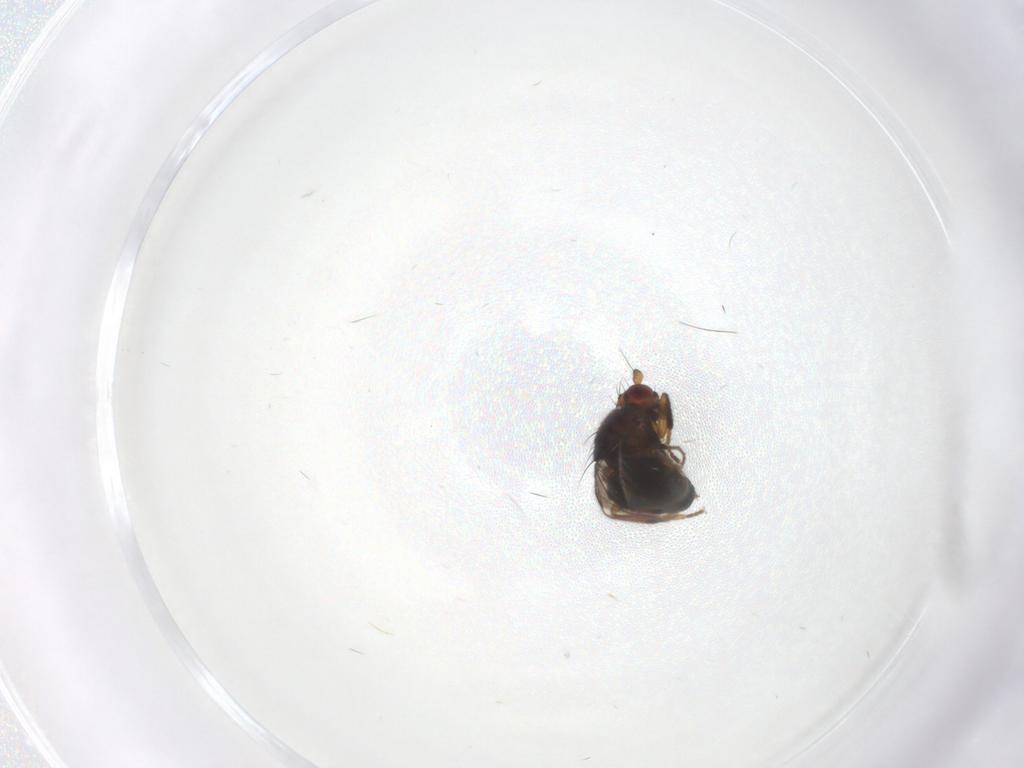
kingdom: Animalia
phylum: Arthropoda
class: Insecta
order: Diptera
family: Sphaeroceridae
